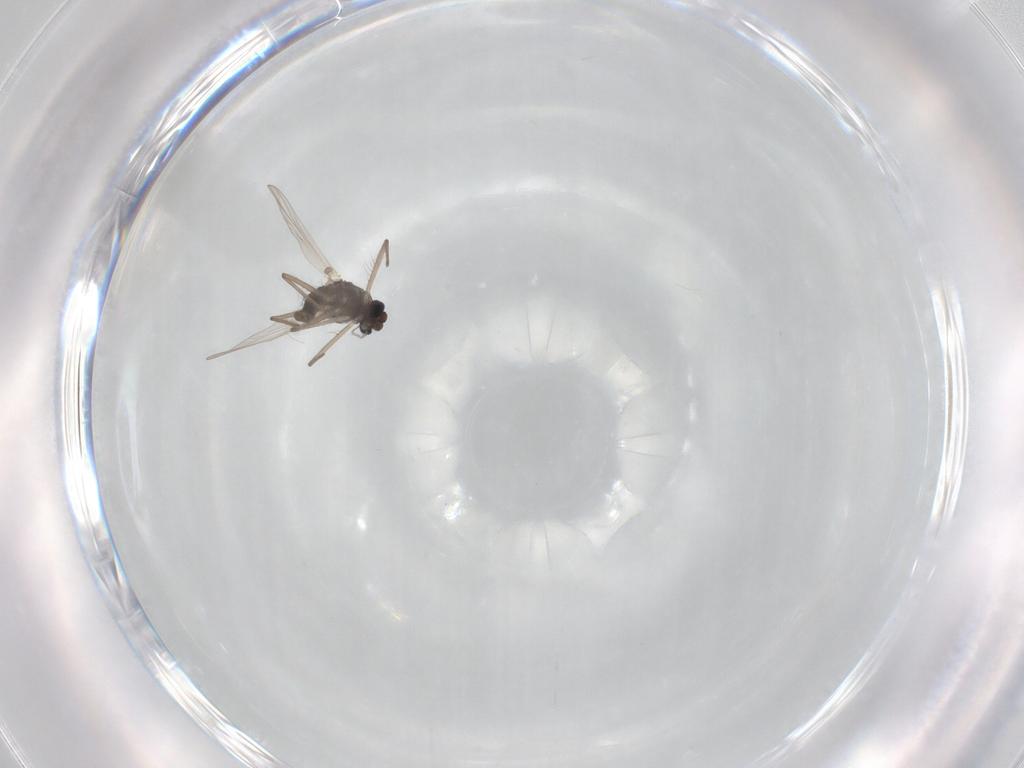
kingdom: Animalia
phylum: Arthropoda
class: Insecta
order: Diptera
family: Chironomidae
